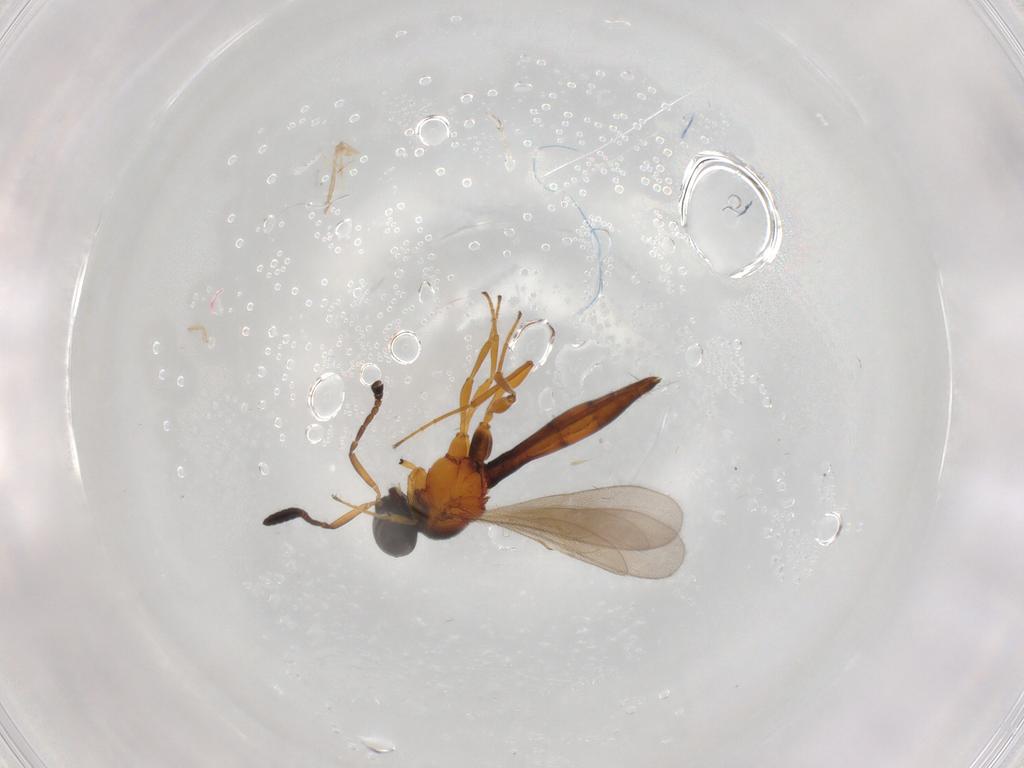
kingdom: Animalia
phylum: Arthropoda
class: Insecta
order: Hymenoptera
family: Scelionidae
